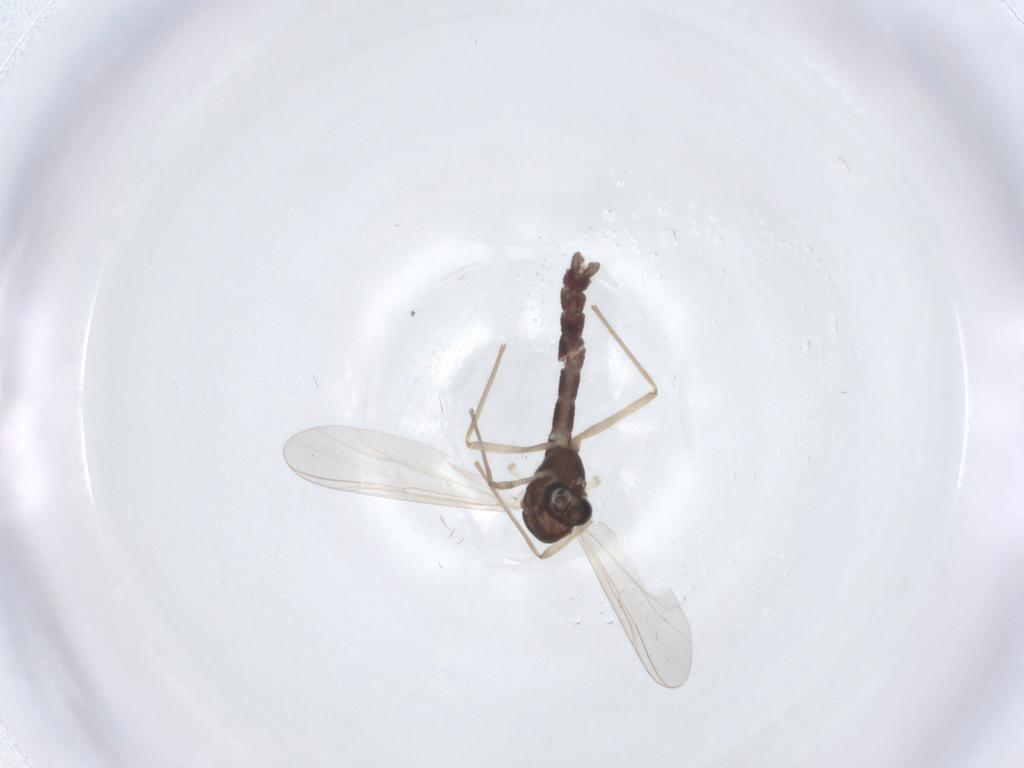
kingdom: Animalia
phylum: Arthropoda
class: Insecta
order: Diptera
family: Chironomidae
